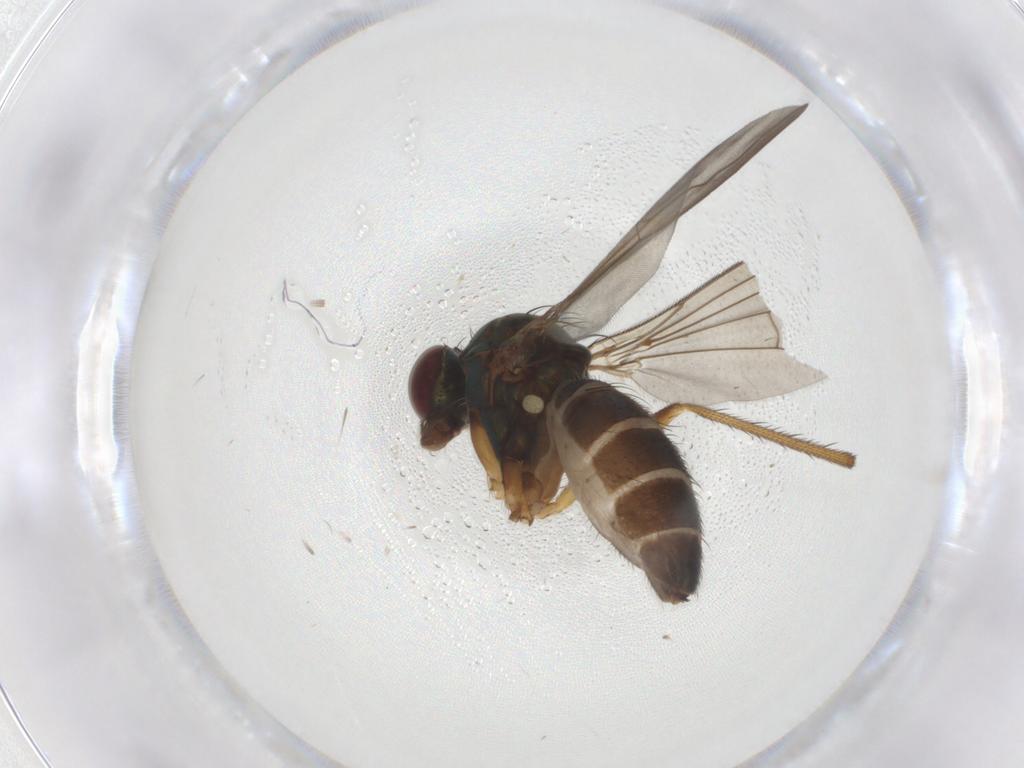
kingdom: Animalia
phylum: Arthropoda
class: Insecta
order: Diptera
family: Dolichopodidae
